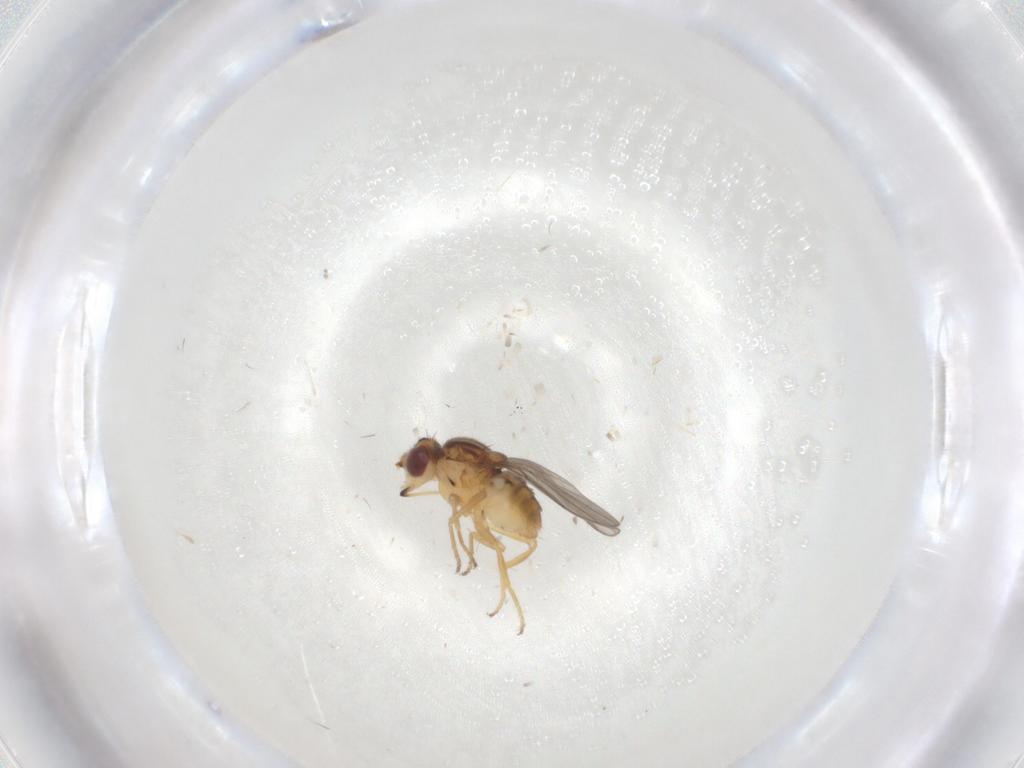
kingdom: Animalia
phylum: Arthropoda
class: Insecta
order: Diptera
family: Chloropidae
